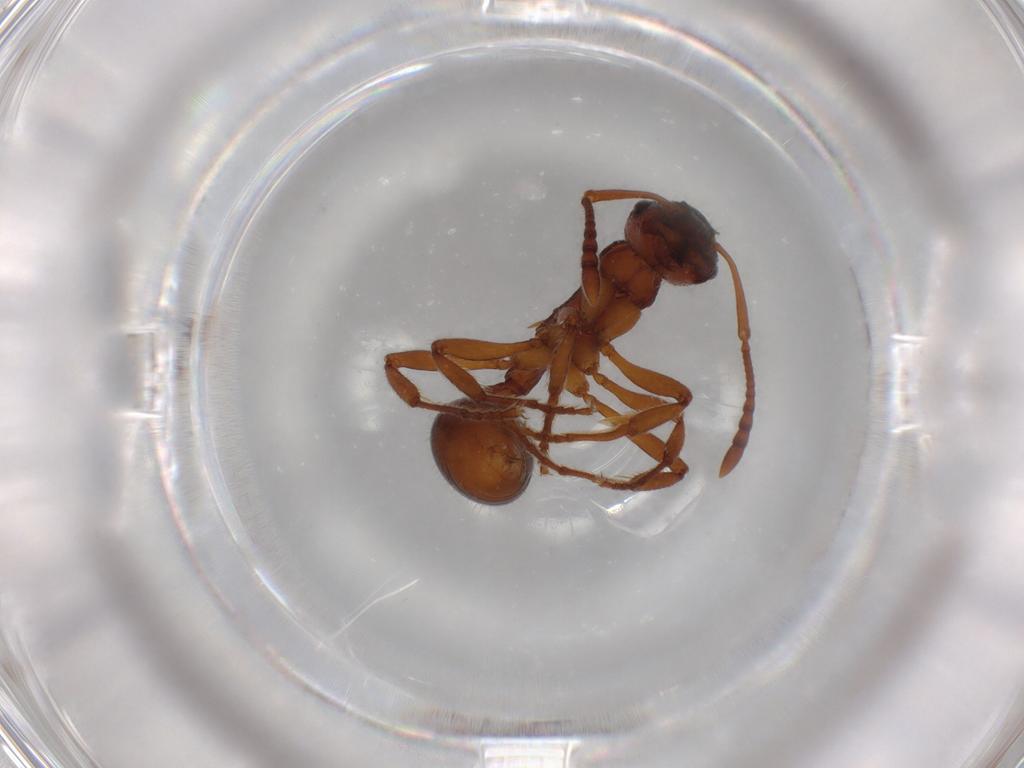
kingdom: Animalia
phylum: Arthropoda
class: Insecta
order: Hymenoptera
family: Formicidae
